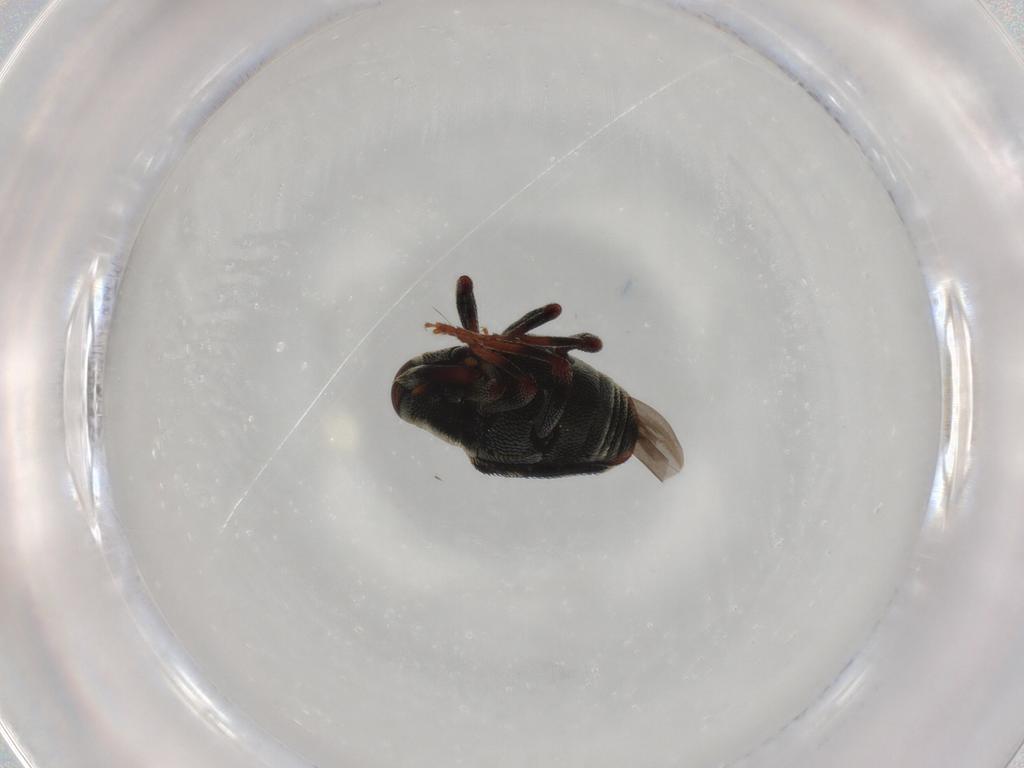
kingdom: Animalia
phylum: Arthropoda
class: Insecta
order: Coleoptera
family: Curculionidae
